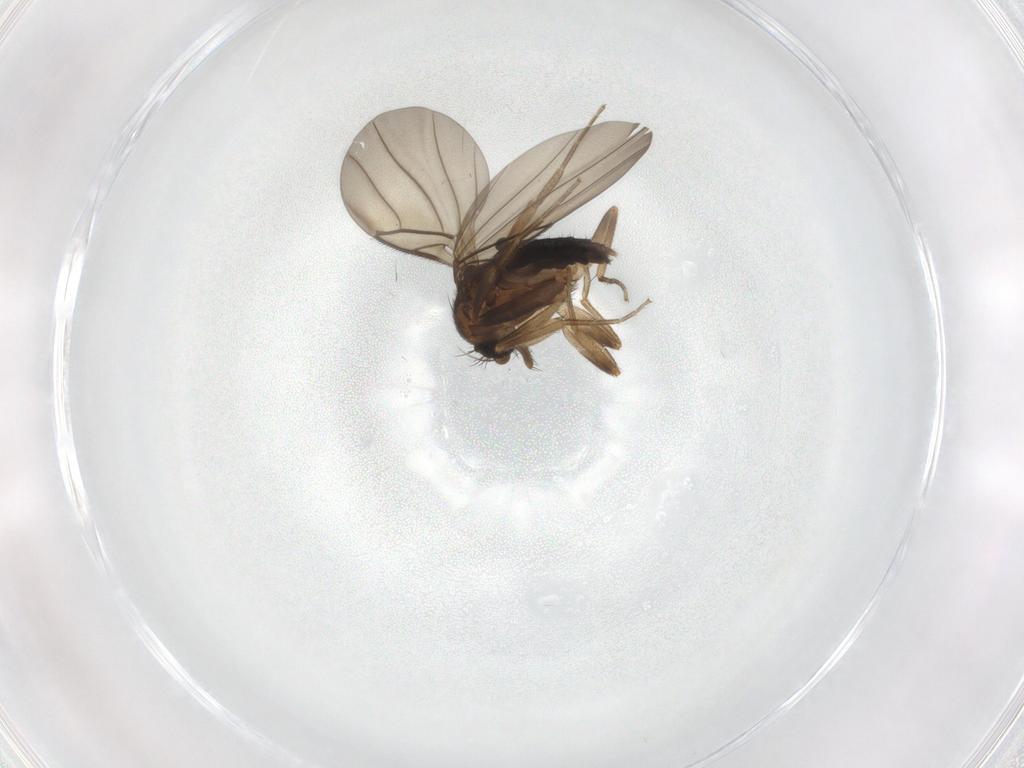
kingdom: Animalia
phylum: Arthropoda
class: Insecta
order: Diptera
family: Phoridae
